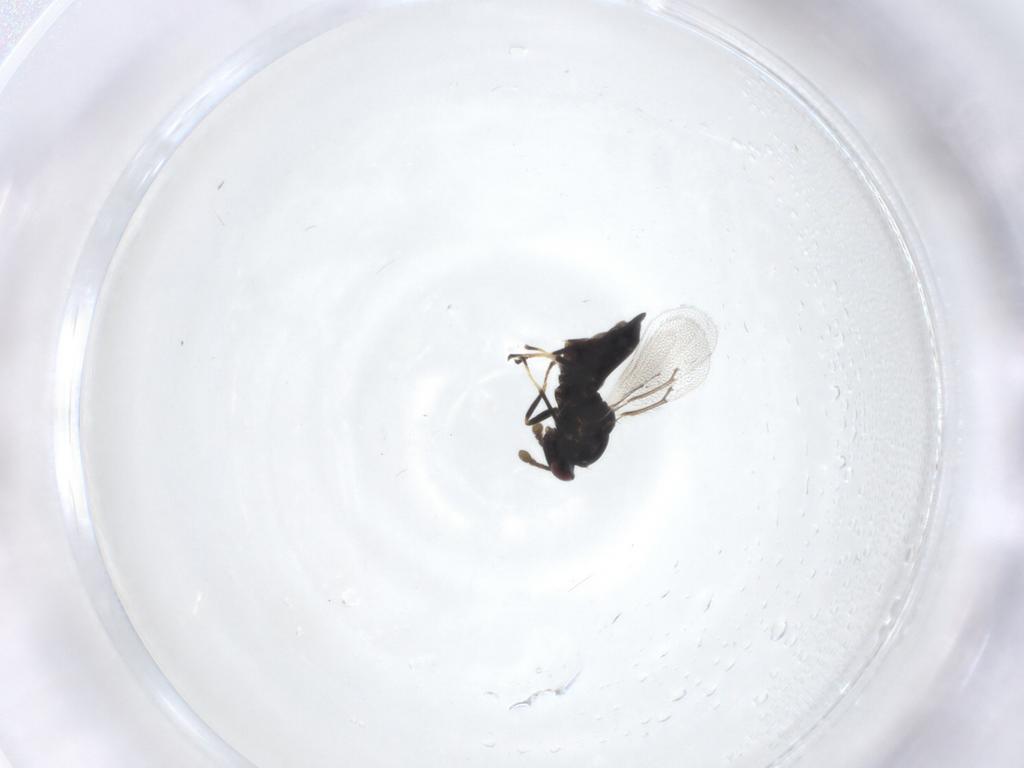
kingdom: Animalia
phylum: Arthropoda
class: Insecta
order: Hymenoptera
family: Eulophidae
